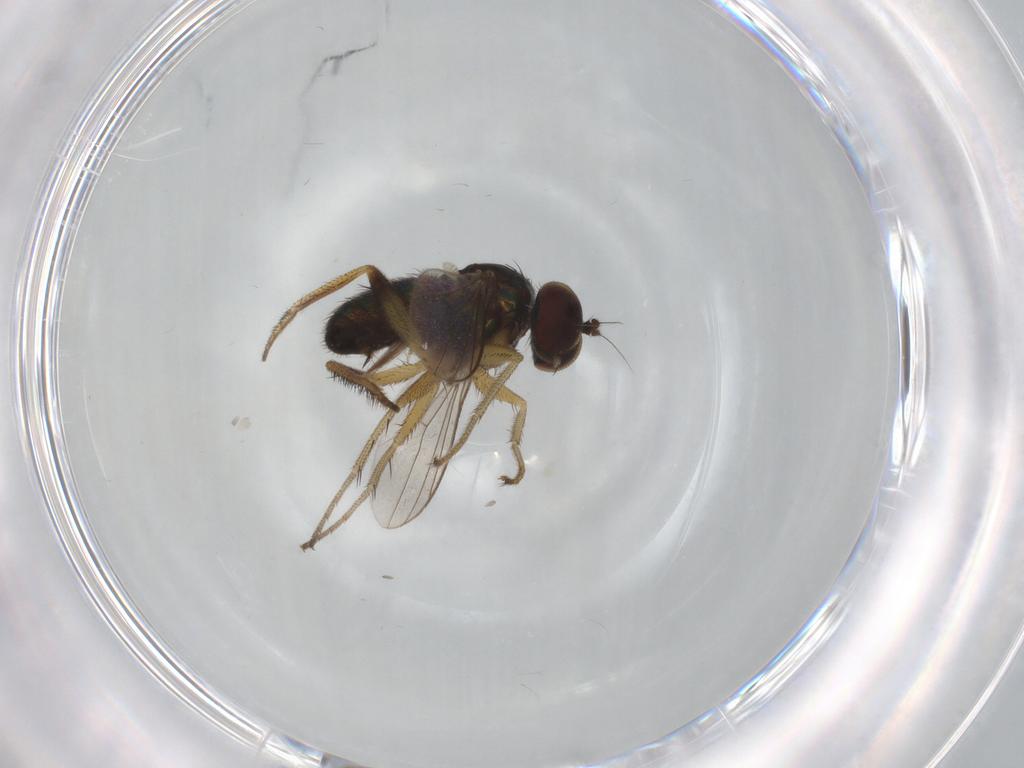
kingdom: Animalia
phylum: Arthropoda
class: Insecta
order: Diptera
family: Dolichopodidae
